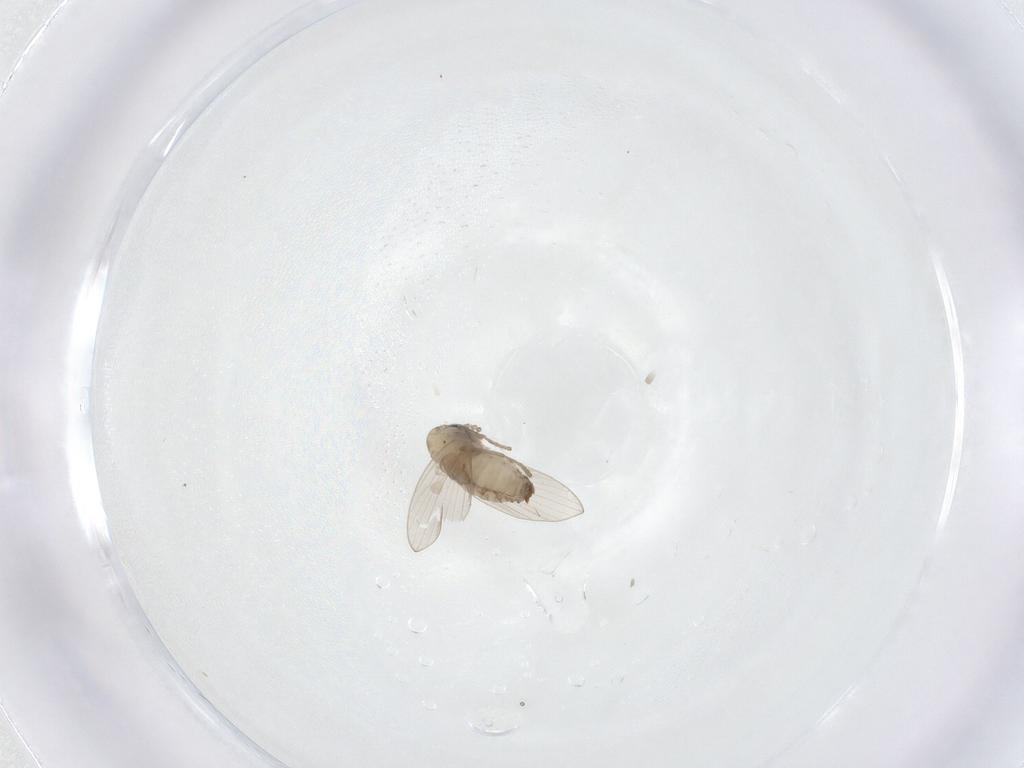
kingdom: Animalia
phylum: Arthropoda
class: Insecta
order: Diptera
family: Psychodidae
